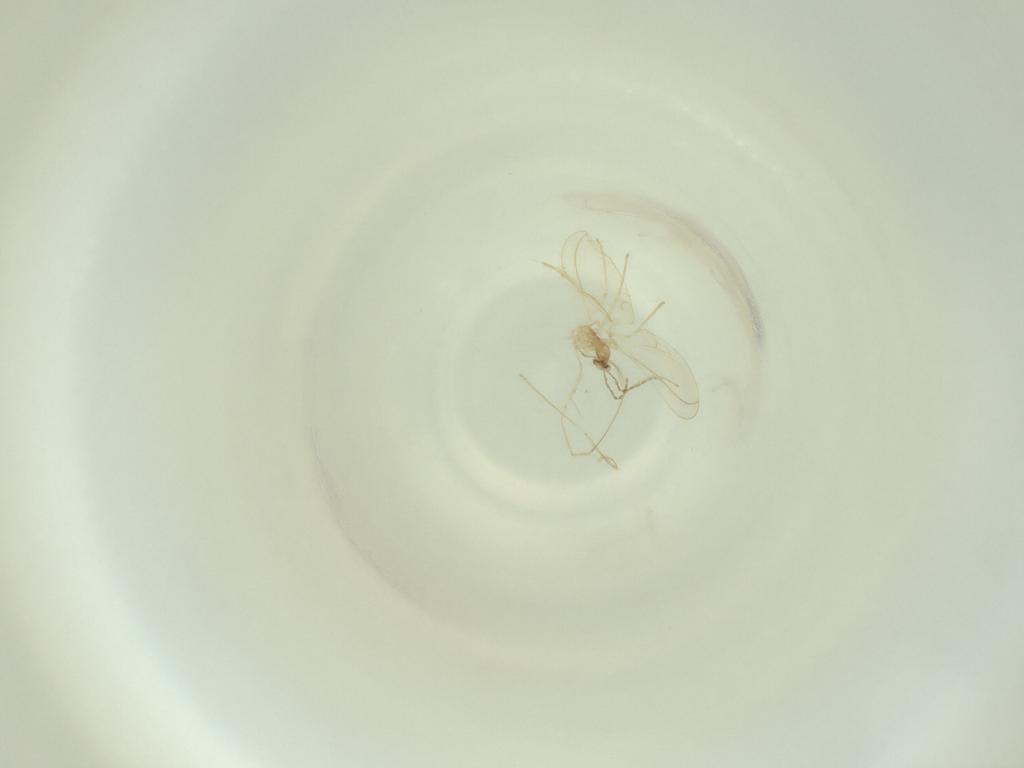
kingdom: Animalia
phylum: Arthropoda
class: Insecta
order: Diptera
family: Cecidomyiidae
